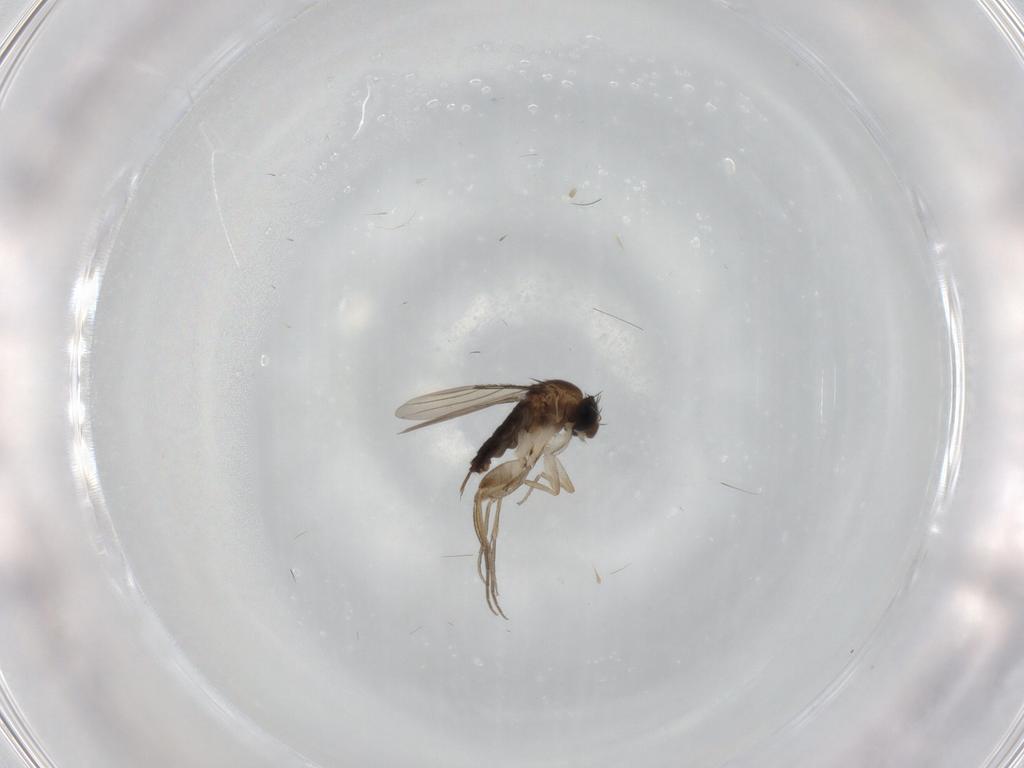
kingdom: Animalia
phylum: Arthropoda
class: Insecta
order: Diptera
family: Phoridae
